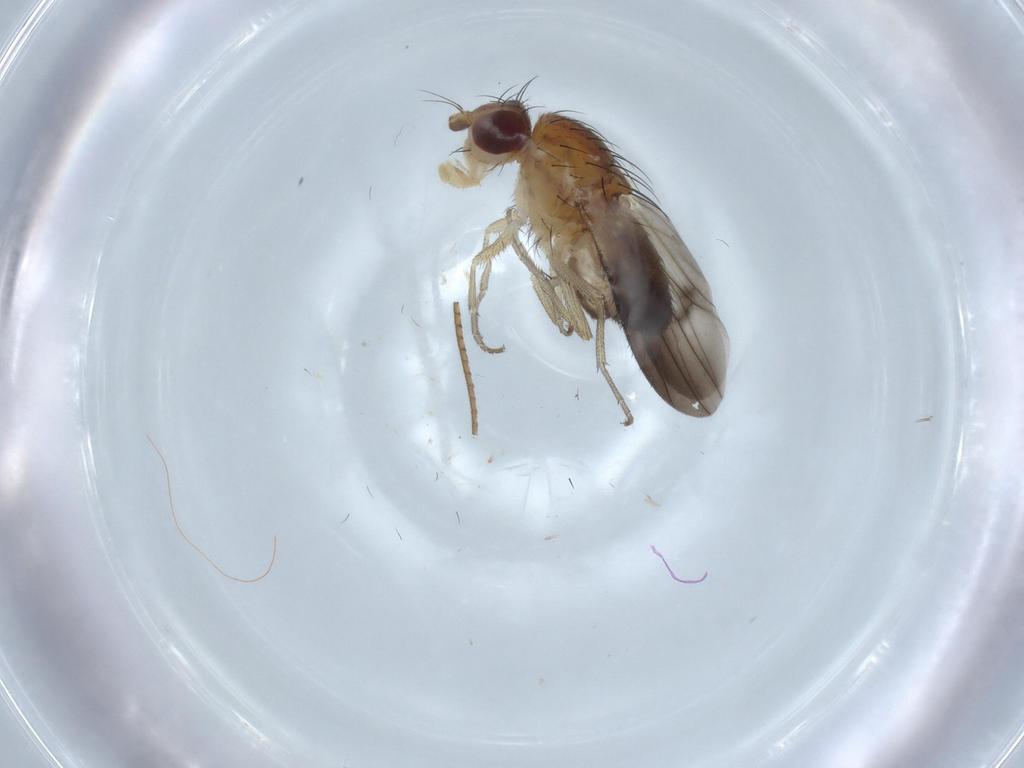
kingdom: Animalia
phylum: Arthropoda
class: Insecta
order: Diptera
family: Heleomyzidae
